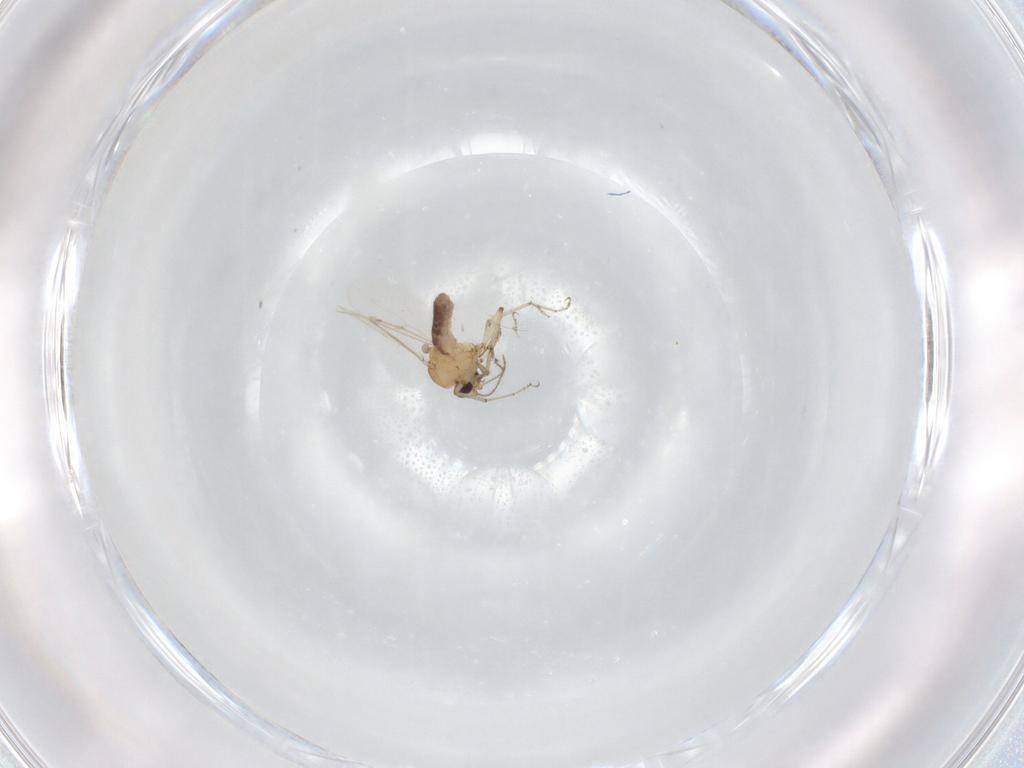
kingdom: Animalia
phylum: Arthropoda
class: Insecta
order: Diptera
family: Ceratopogonidae
